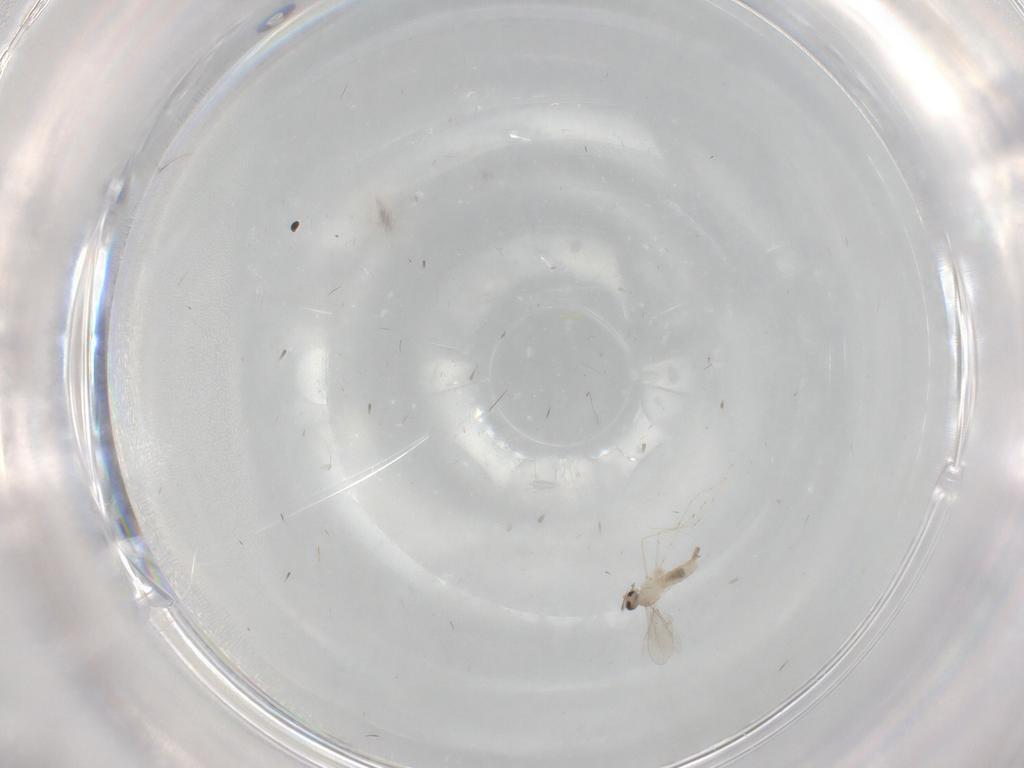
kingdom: Animalia
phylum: Arthropoda
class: Insecta
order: Diptera
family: Cecidomyiidae
